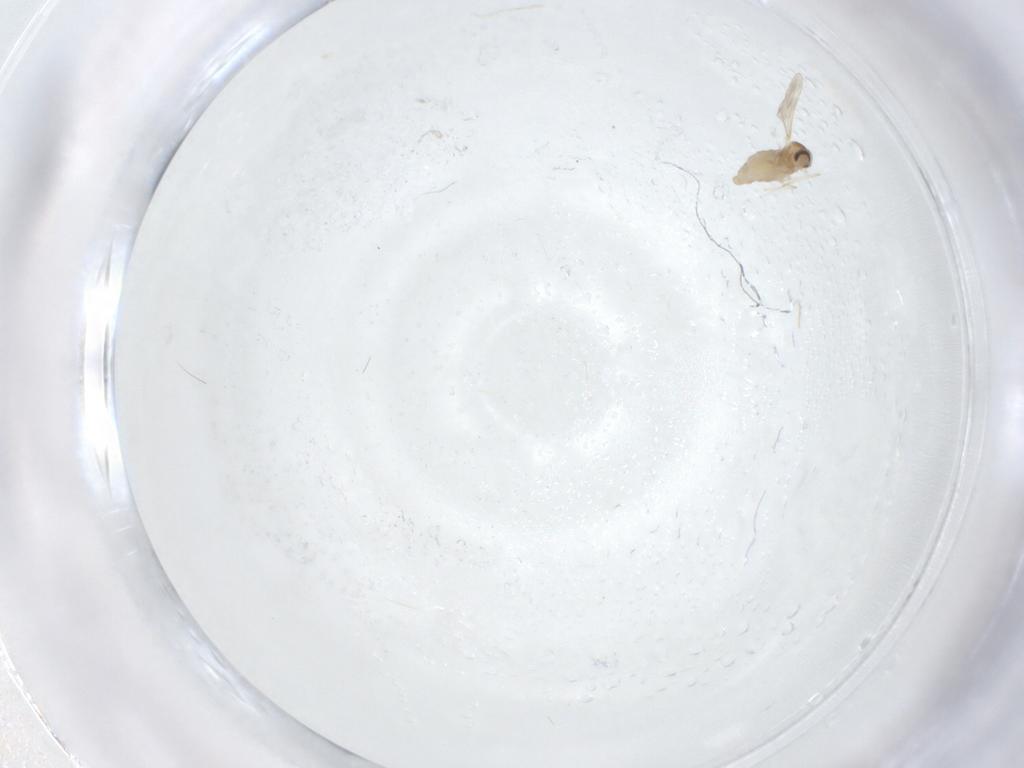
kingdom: Animalia
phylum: Arthropoda
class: Insecta
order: Diptera
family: Cecidomyiidae
